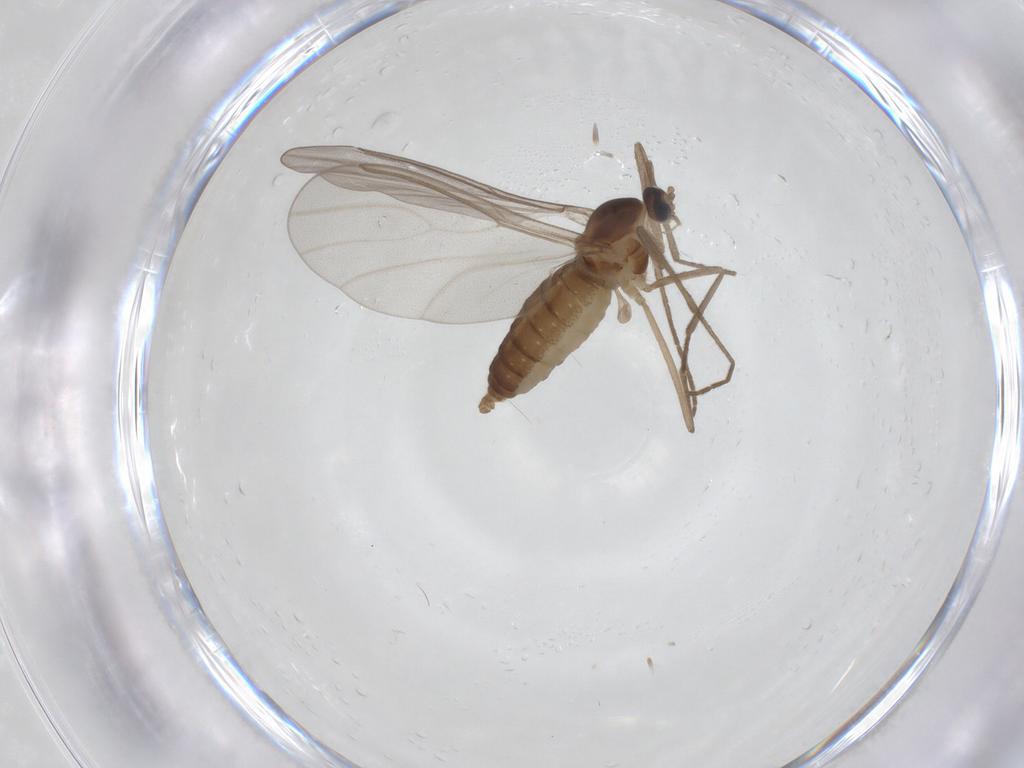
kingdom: Animalia
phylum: Arthropoda
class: Insecta
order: Diptera
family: Cecidomyiidae
